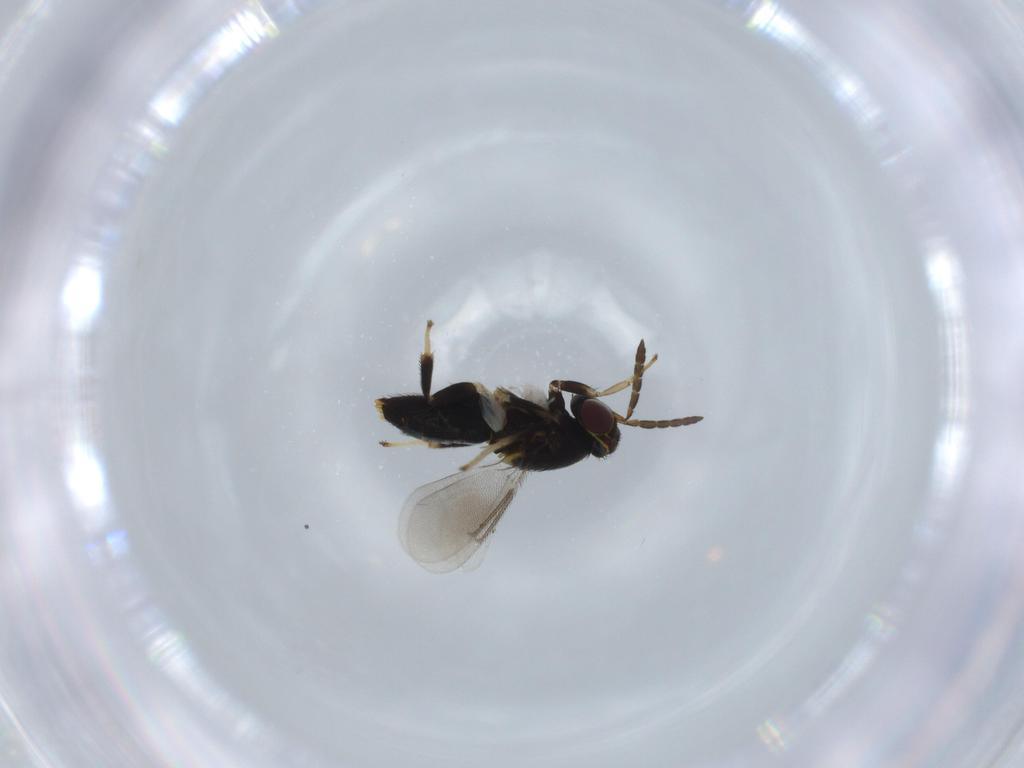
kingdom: Animalia
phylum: Arthropoda
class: Insecta
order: Hymenoptera
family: Aphelinidae
